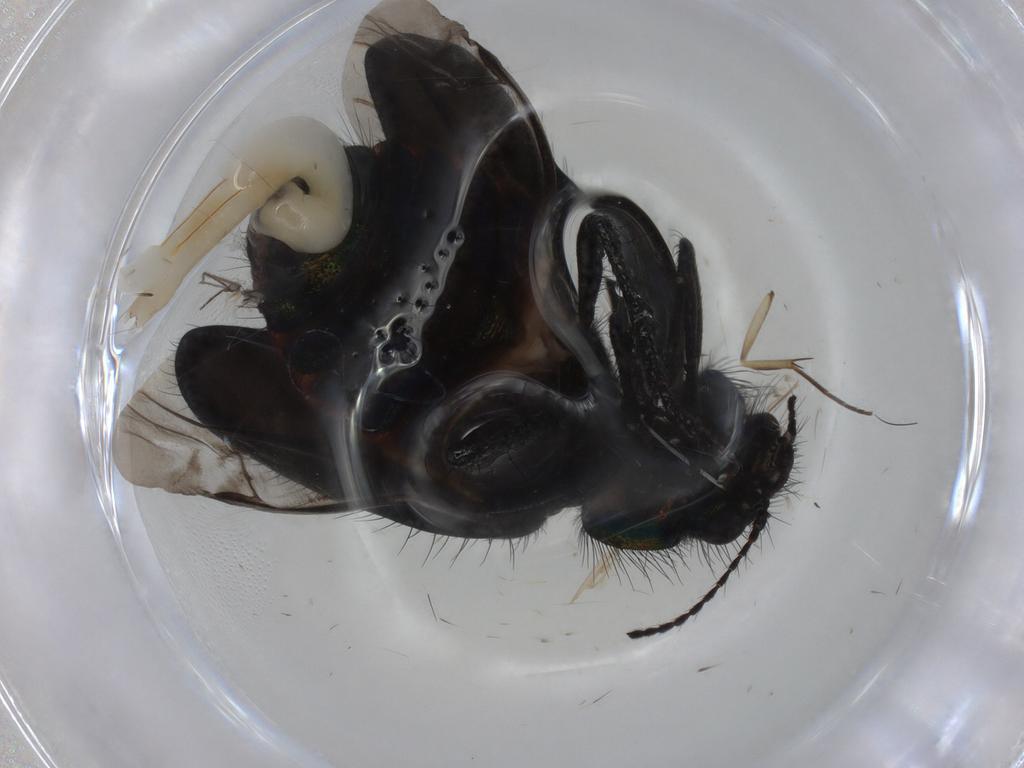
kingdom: Animalia
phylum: Arthropoda
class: Insecta
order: Coleoptera
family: Melyridae
